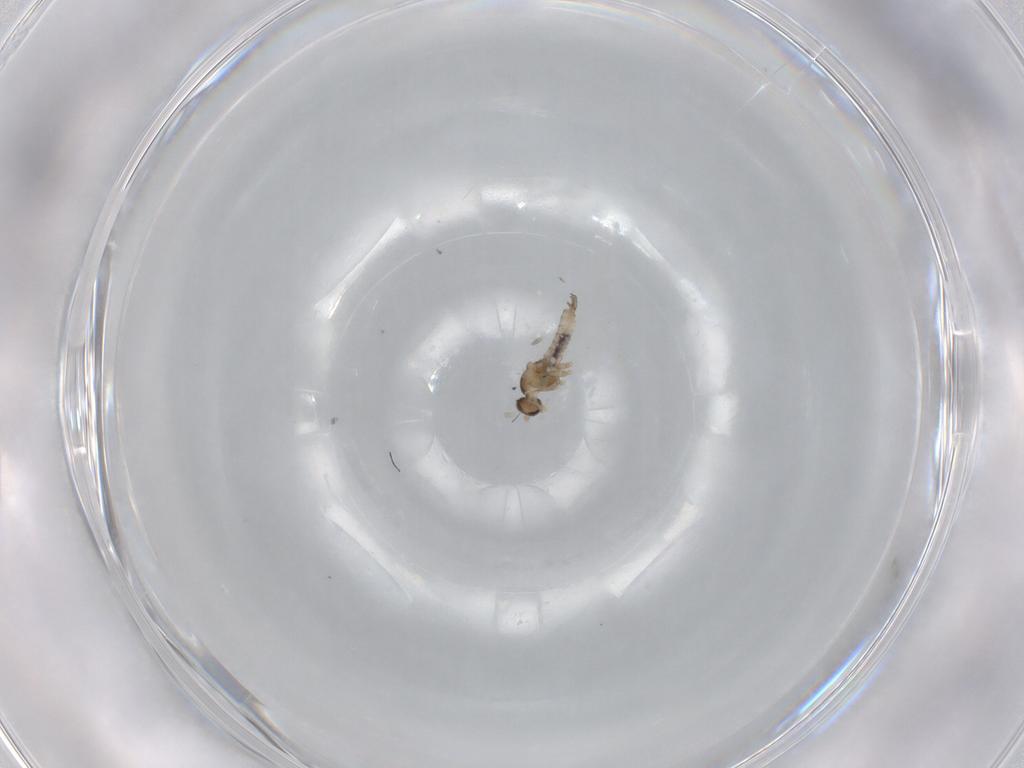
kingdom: Animalia
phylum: Arthropoda
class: Insecta
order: Diptera
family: Cecidomyiidae
